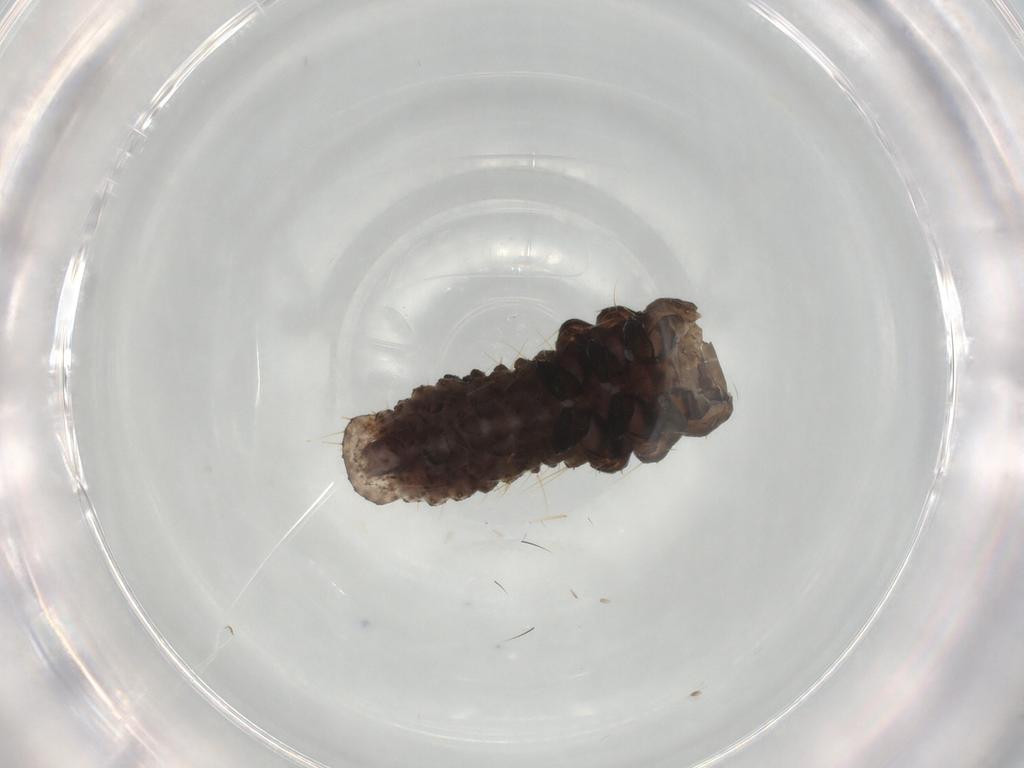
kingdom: Animalia
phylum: Arthropoda
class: Insecta
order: Coleoptera
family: Chrysomelidae
